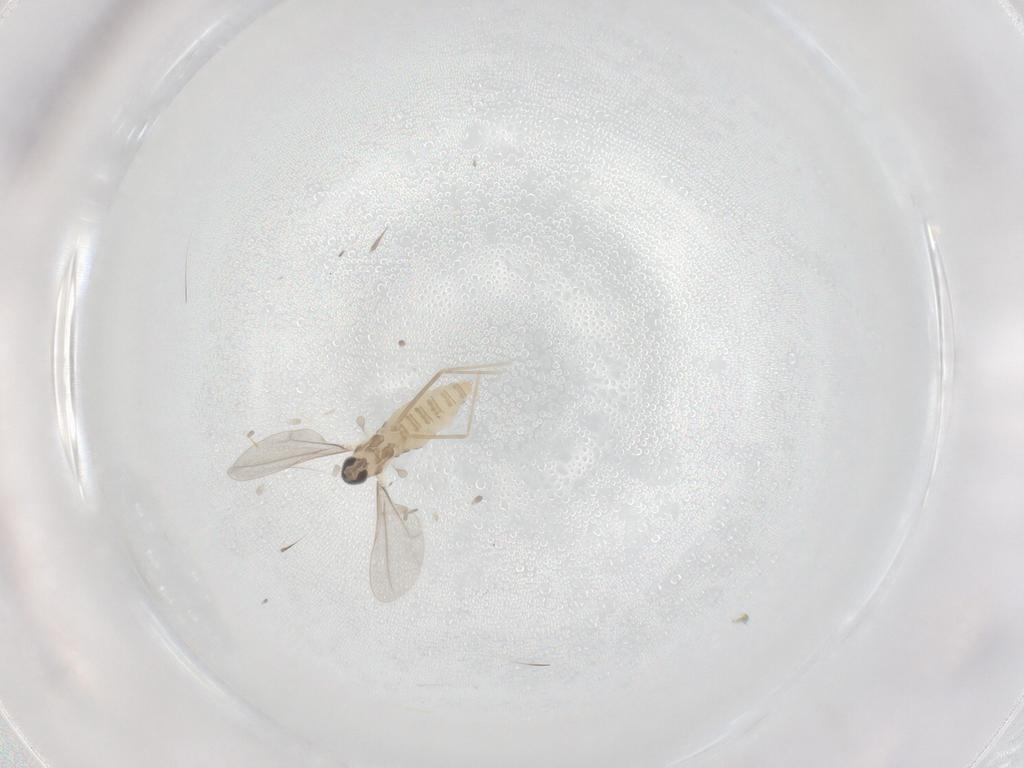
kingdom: Animalia
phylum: Arthropoda
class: Insecta
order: Diptera
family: Cecidomyiidae
